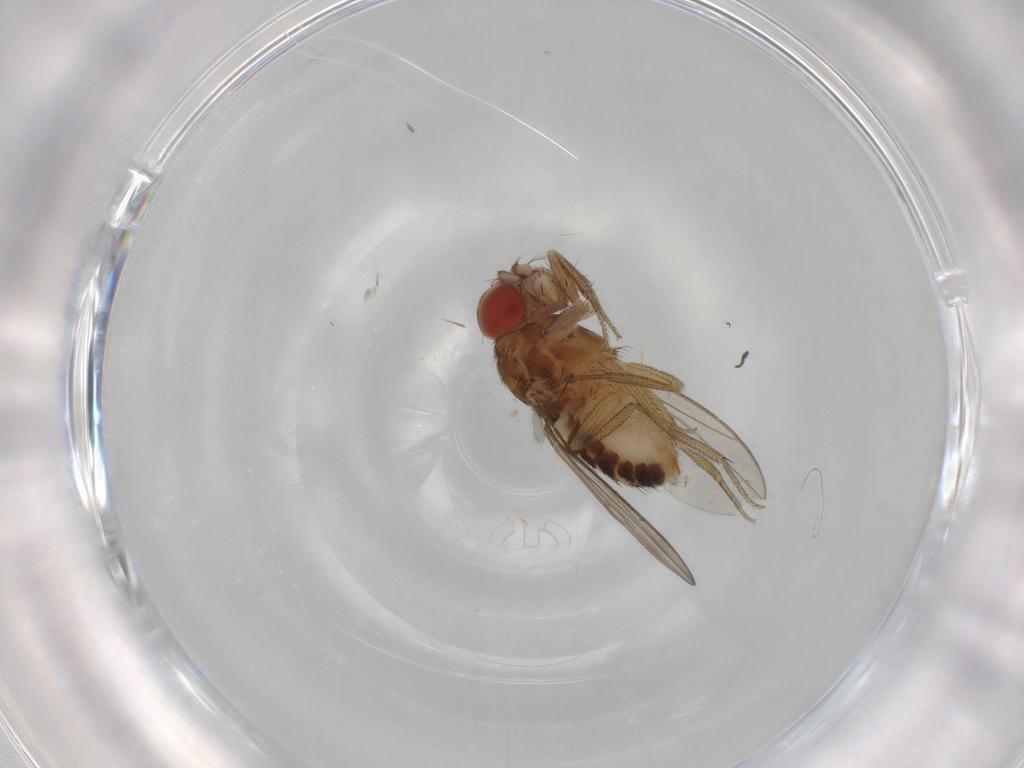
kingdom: Animalia
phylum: Arthropoda
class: Insecta
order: Diptera
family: Drosophilidae
